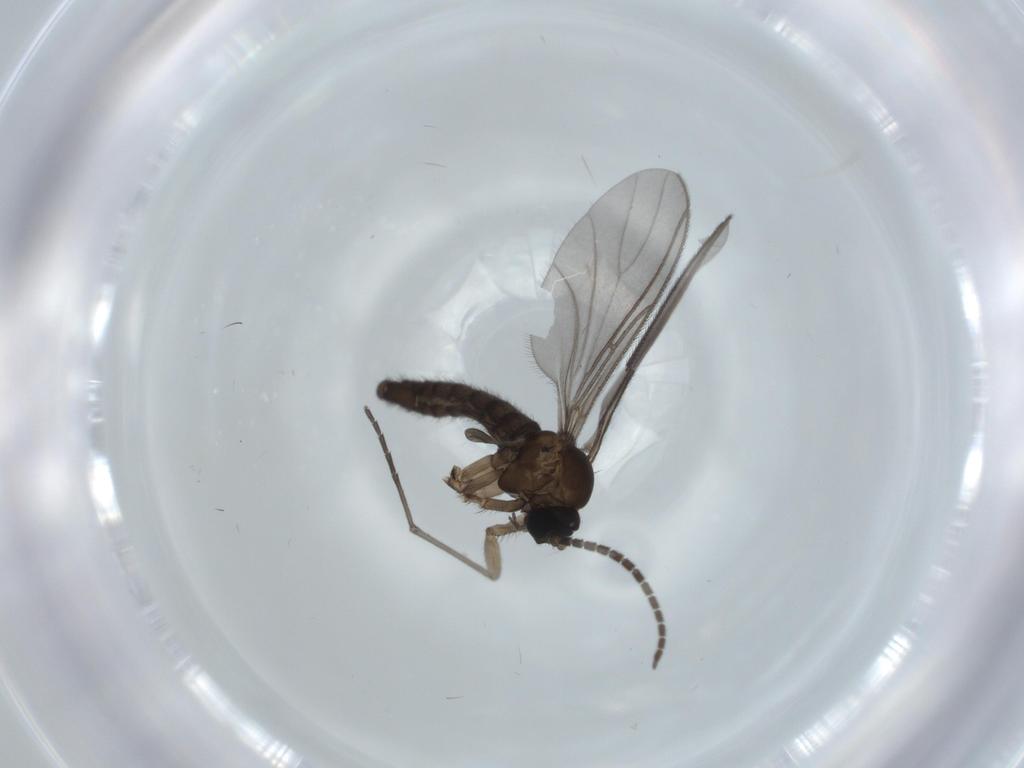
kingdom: Animalia
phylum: Arthropoda
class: Insecta
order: Diptera
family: Sciaridae
